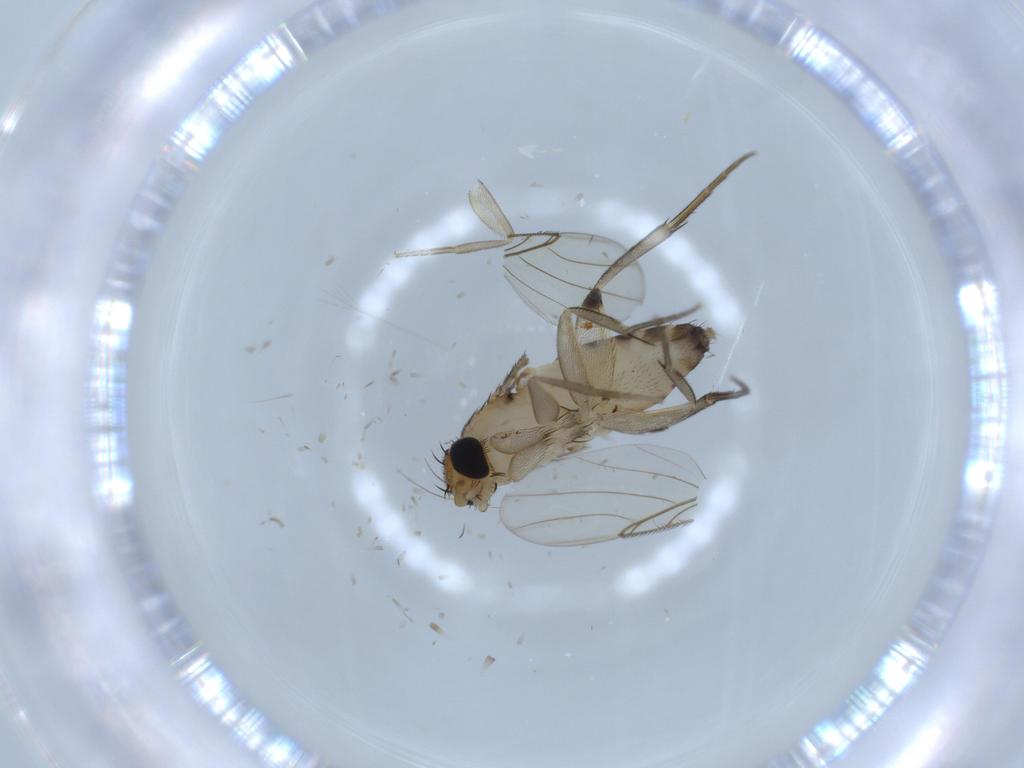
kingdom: Animalia
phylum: Arthropoda
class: Insecta
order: Diptera
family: Phoridae
